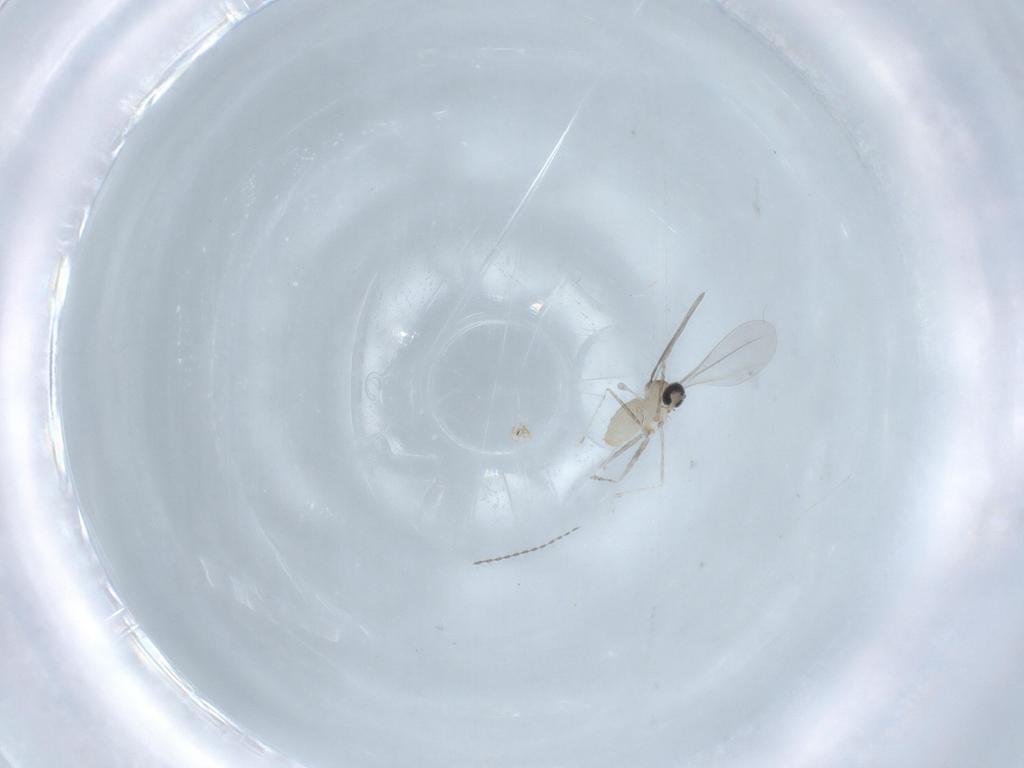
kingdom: Animalia
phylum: Arthropoda
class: Insecta
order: Diptera
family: Cecidomyiidae
